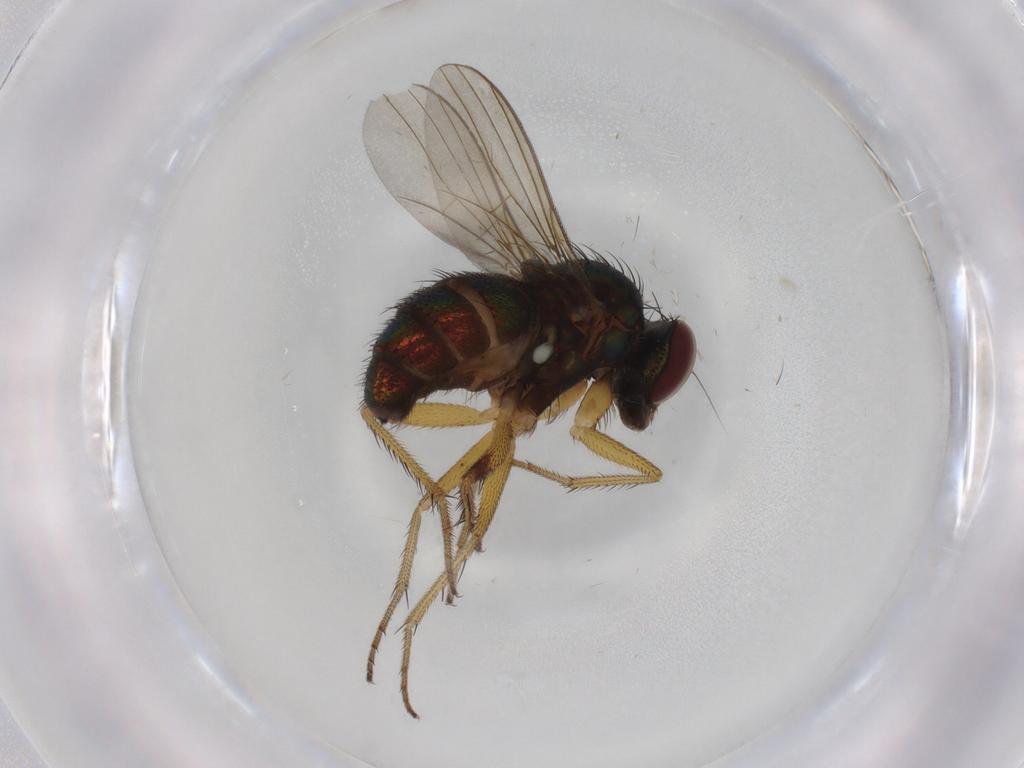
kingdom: Animalia
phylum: Arthropoda
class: Insecta
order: Diptera
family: Dolichopodidae
